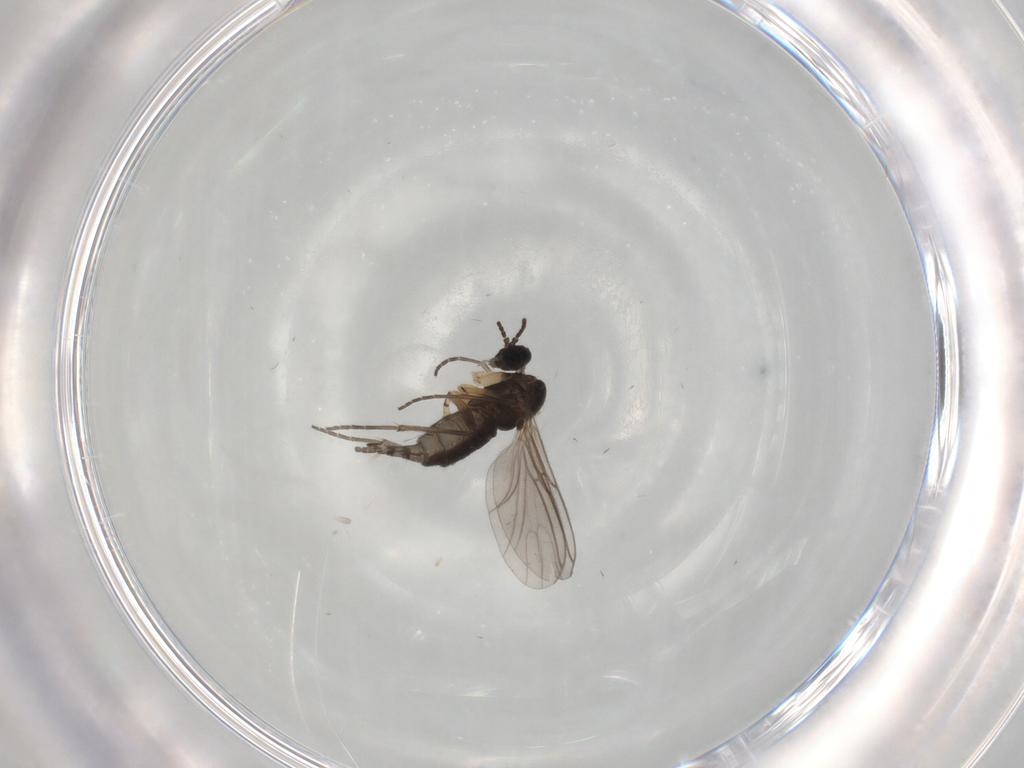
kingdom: Animalia
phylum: Arthropoda
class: Insecta
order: Diptera
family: Sciaridae
